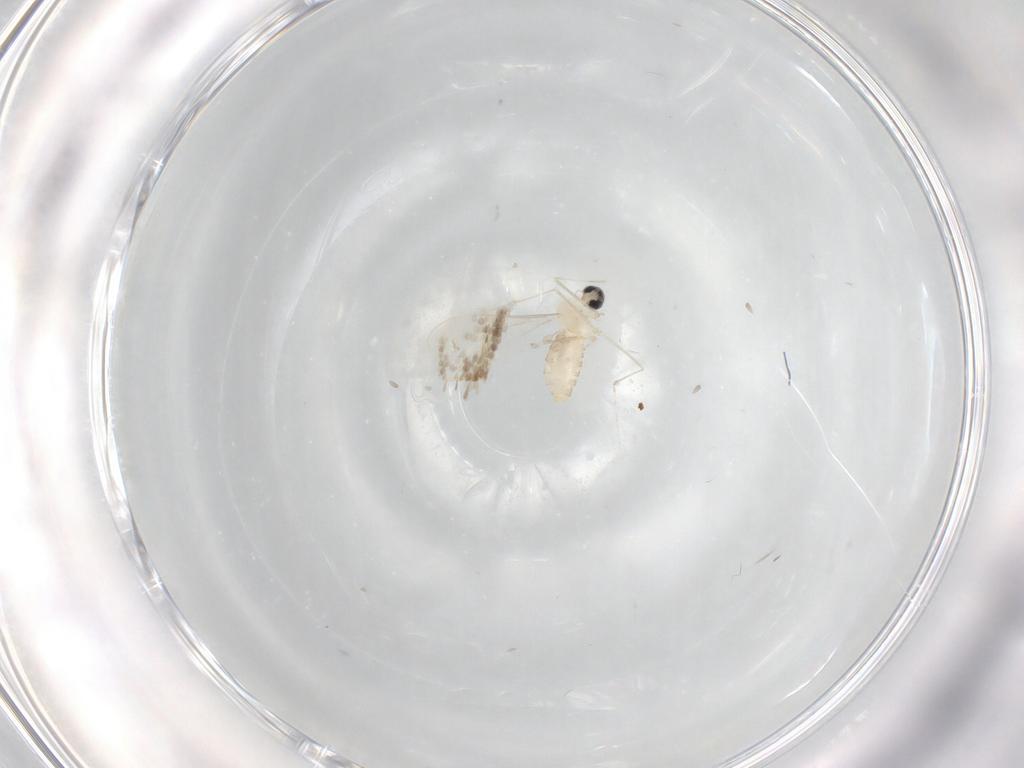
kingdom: Animalia
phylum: Arthropoda
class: Insecta
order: Diptera
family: Cecidomyiidae
